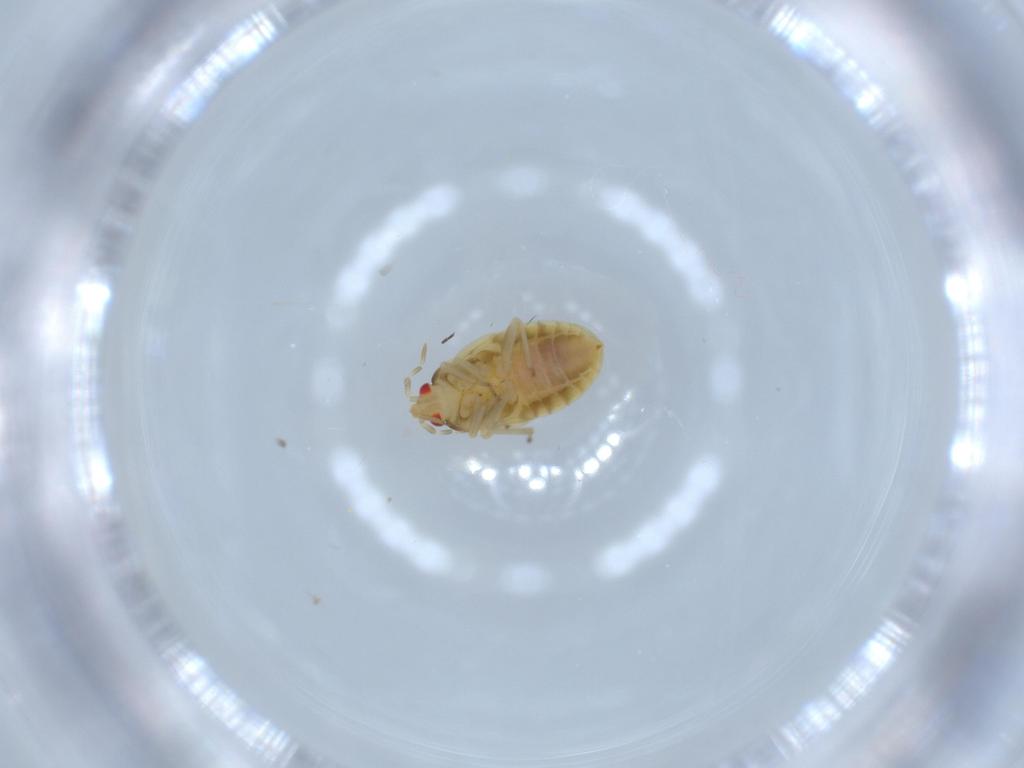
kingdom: Animalia
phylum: Arthropoda
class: Insecta
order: Hemiptera
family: Anthocoridae
